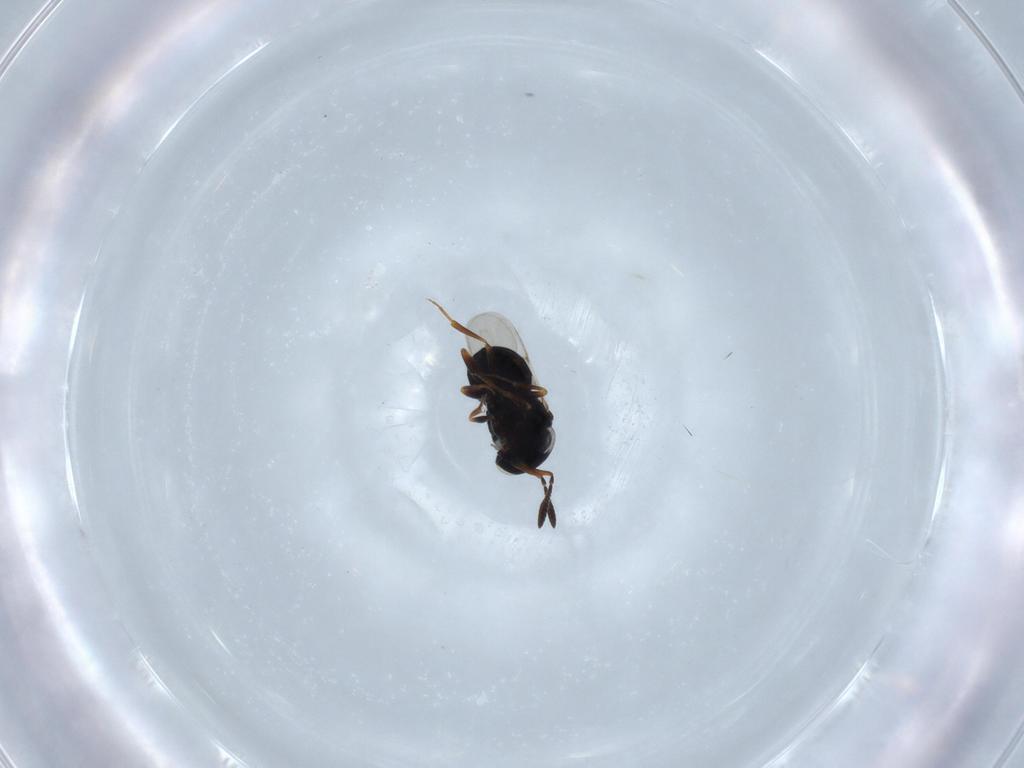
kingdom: Animalia
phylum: Arthropoda
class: Insecta
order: Hymenoptera
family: Scelionidae
